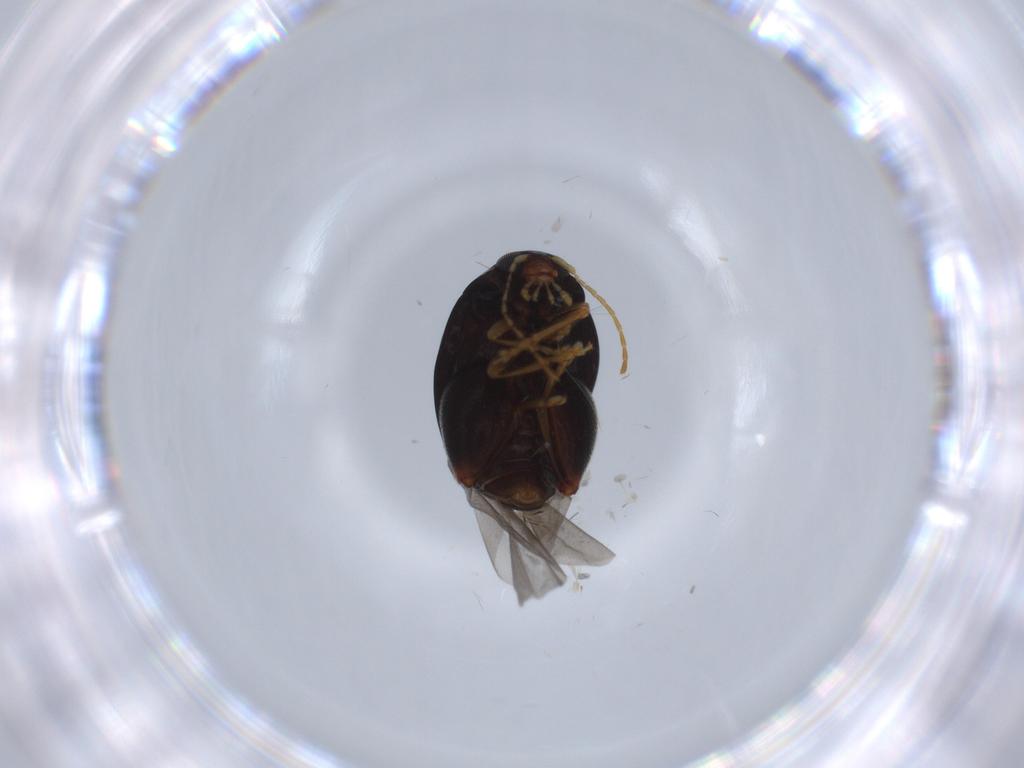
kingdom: Animalia
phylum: Arthropoda
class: Insecta
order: Coleoptera
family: Chrysomelidae
